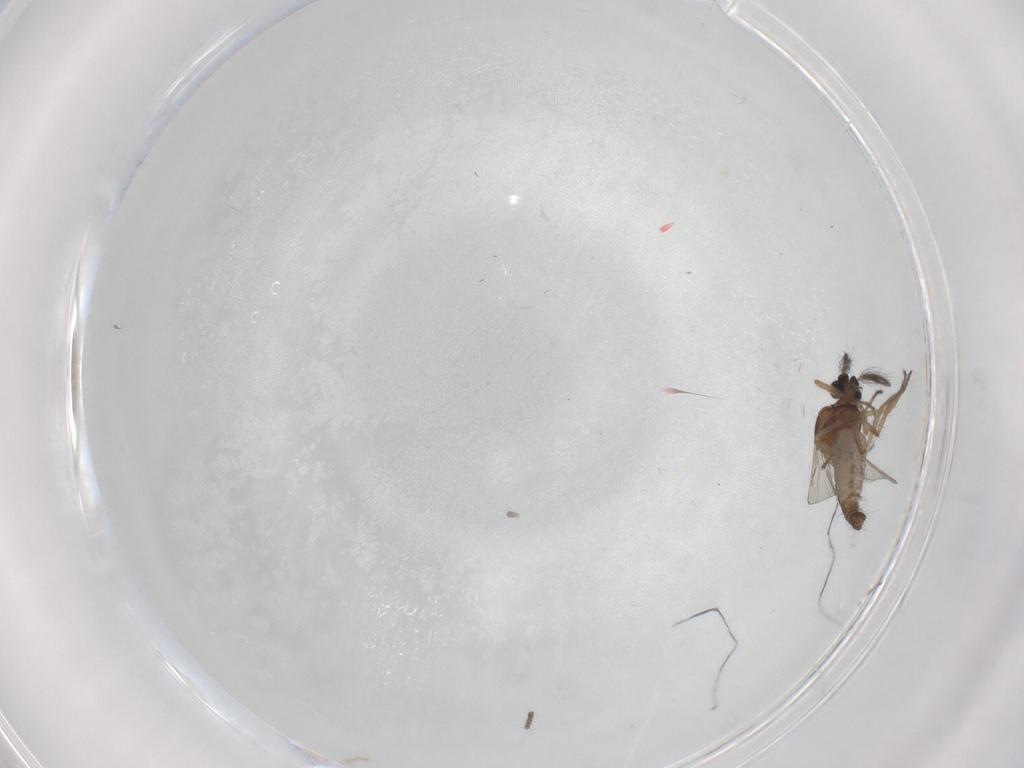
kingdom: Animalia
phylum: Arthropoda
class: Insecta
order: Diptera
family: Cecidomyiidae
